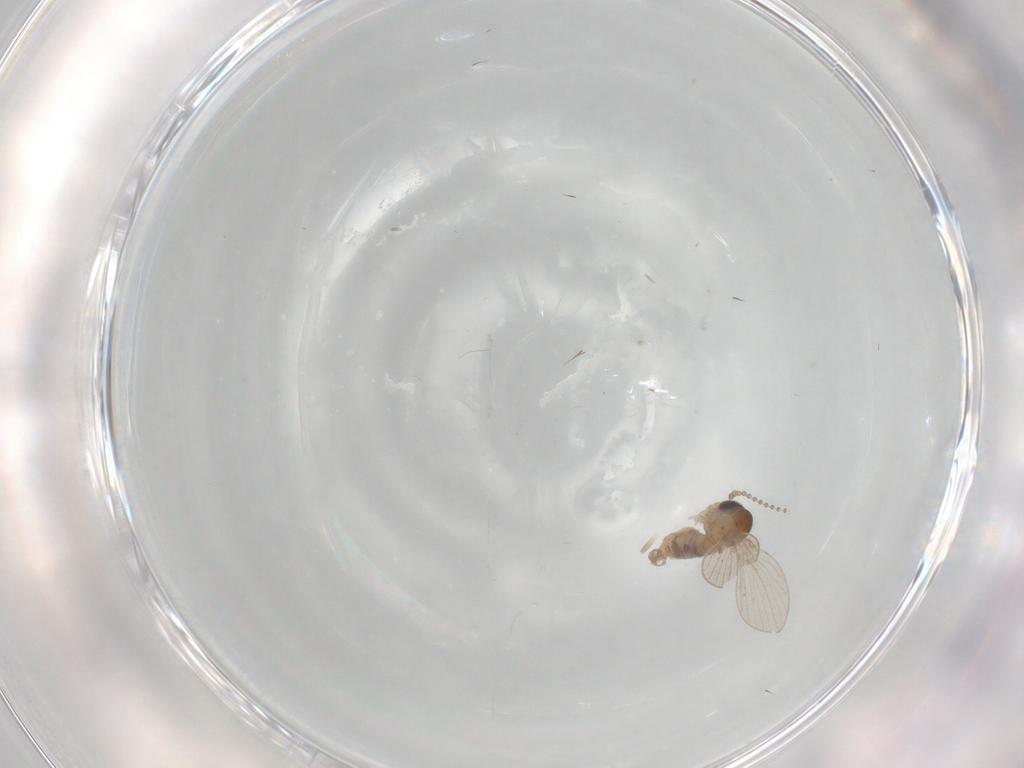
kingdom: Animalia
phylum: Arthropoda
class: Insecta
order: Diptera
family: Psychodidae
